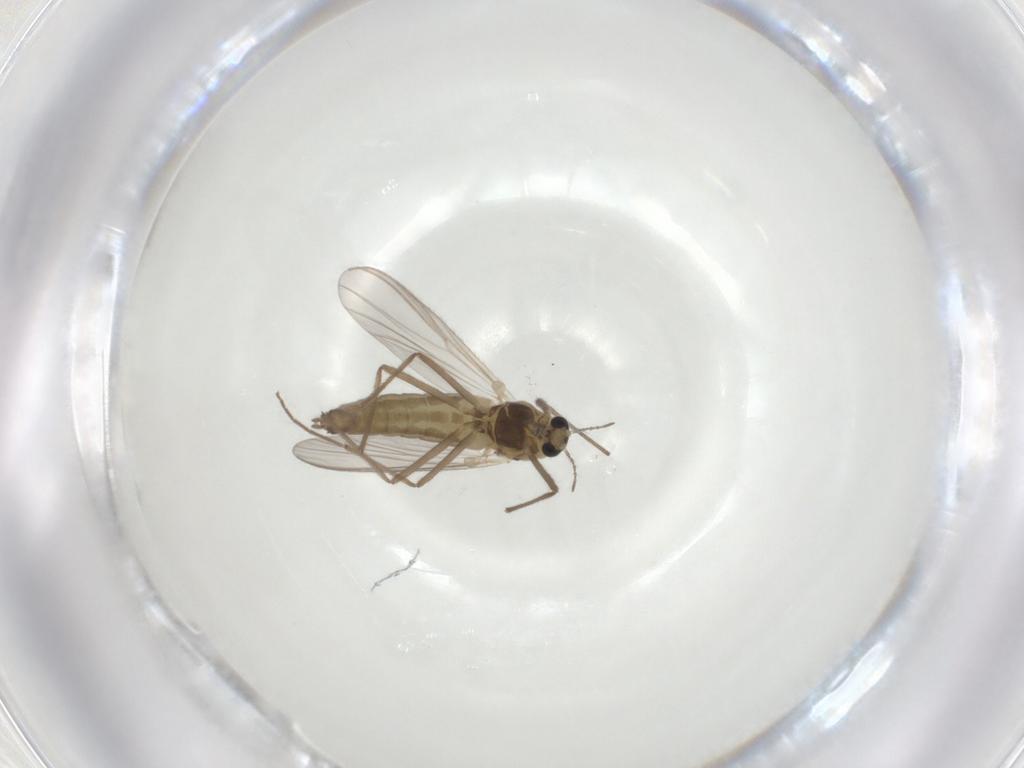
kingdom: Animalia
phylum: Arthropoda
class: Insecta
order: Diptera
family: Chironomidae
